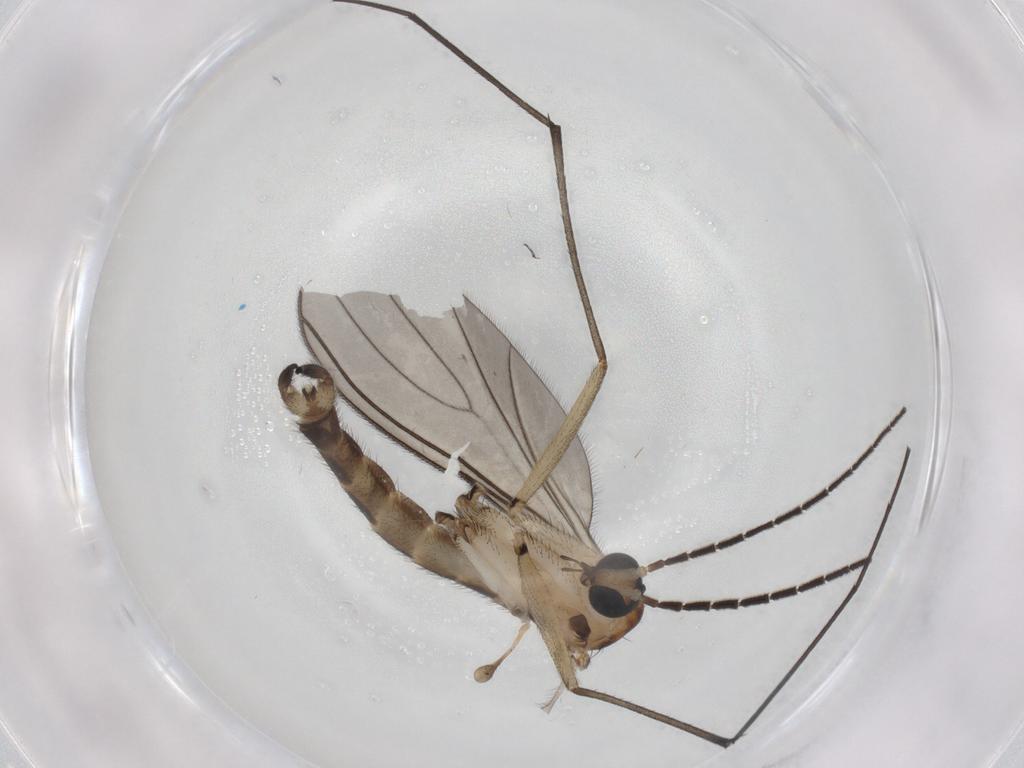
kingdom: Animalia
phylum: Arthropoda
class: Insecta
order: Diptera
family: Sciaridae
